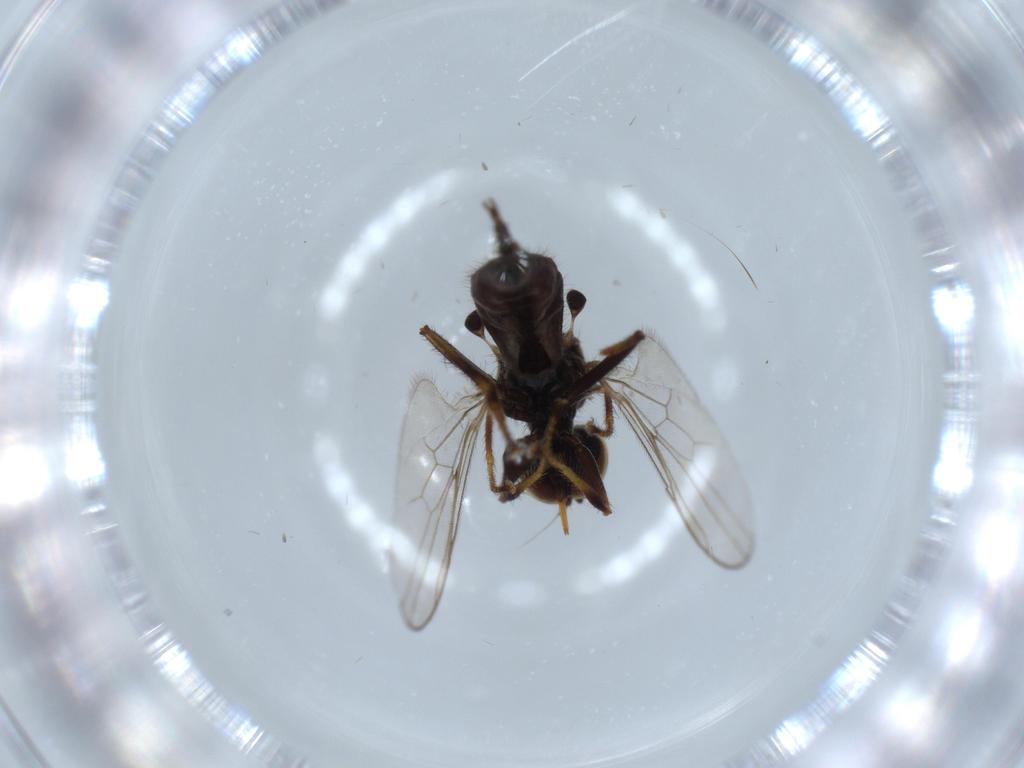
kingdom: Animalia
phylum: Arthropoda
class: Insecta
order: Diptera
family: Hybotidae
